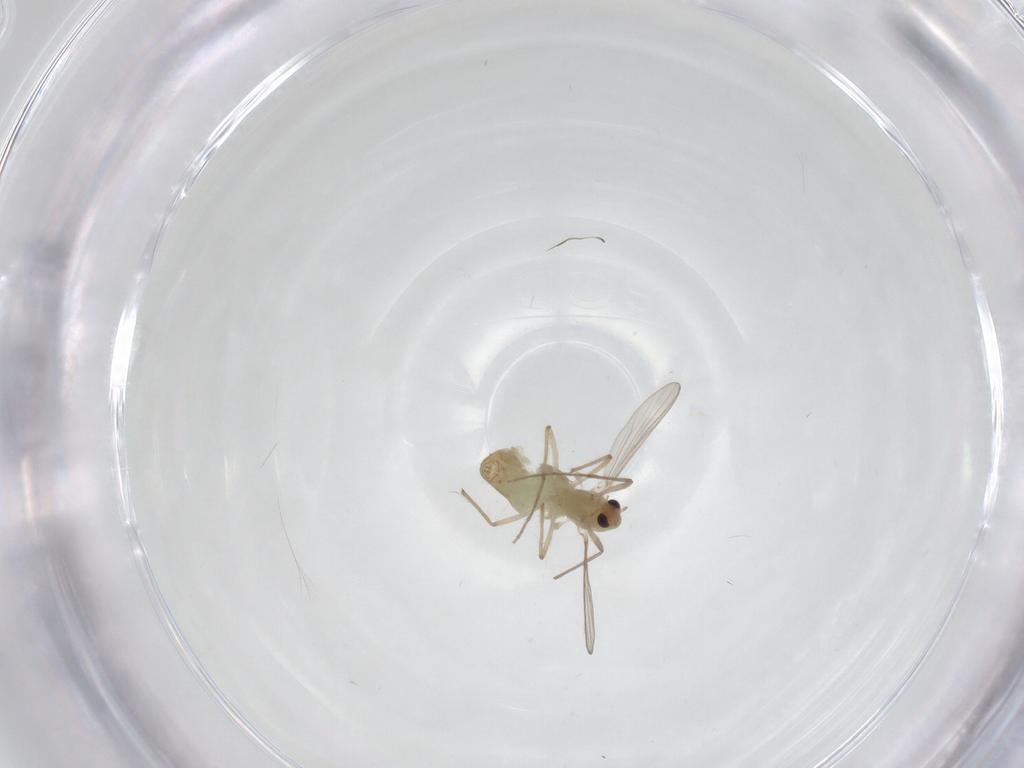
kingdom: Animalia
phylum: Arthropoda
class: Insecta
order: Diptera
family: Chironomidae
